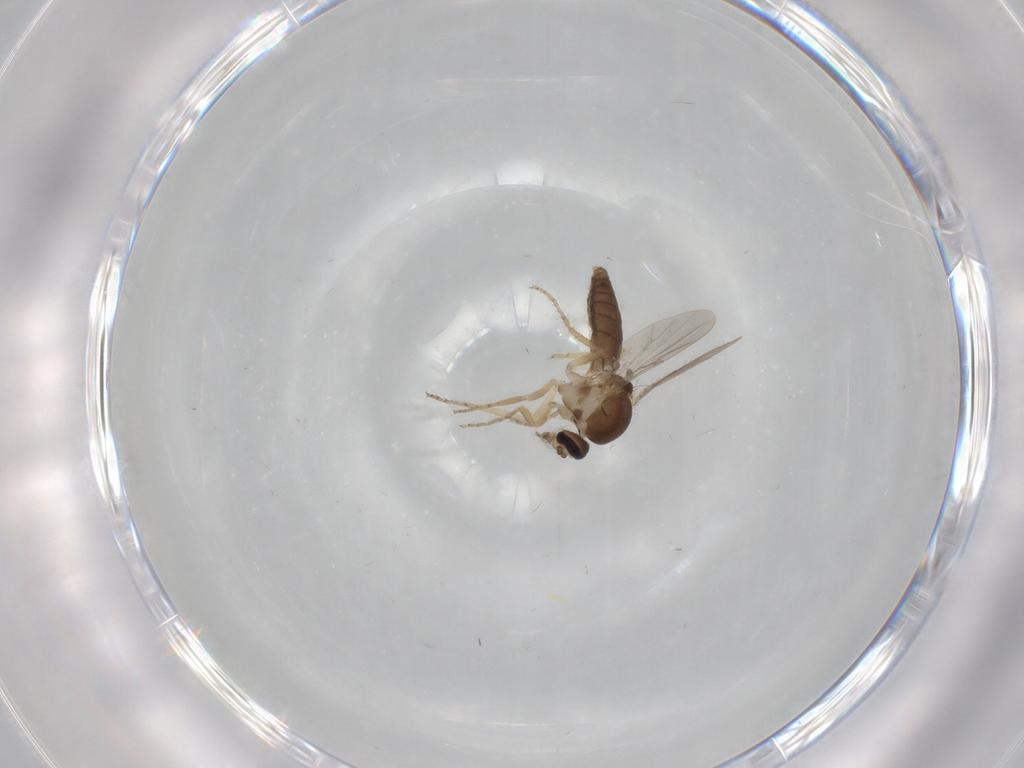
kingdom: Animalia
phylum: Arthropoda
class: Insecta
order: Diptera
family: Ceratopogonidae
